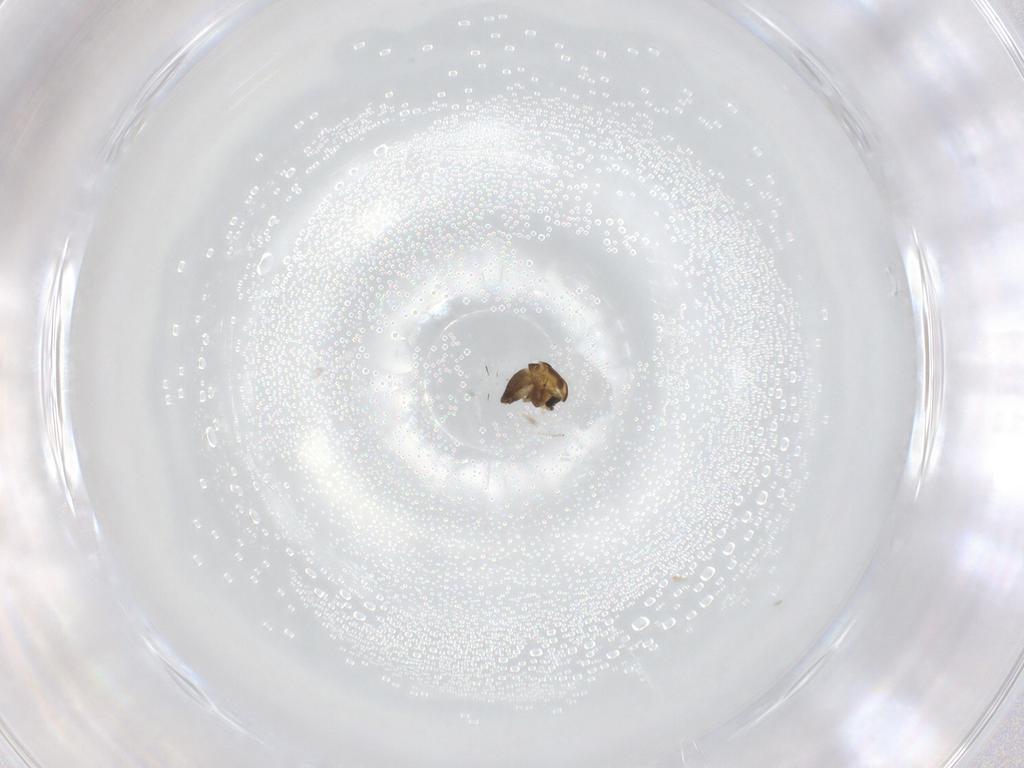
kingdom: Animalia
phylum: Arthropoda
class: Insecta
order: Diptera
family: Chironomidae
